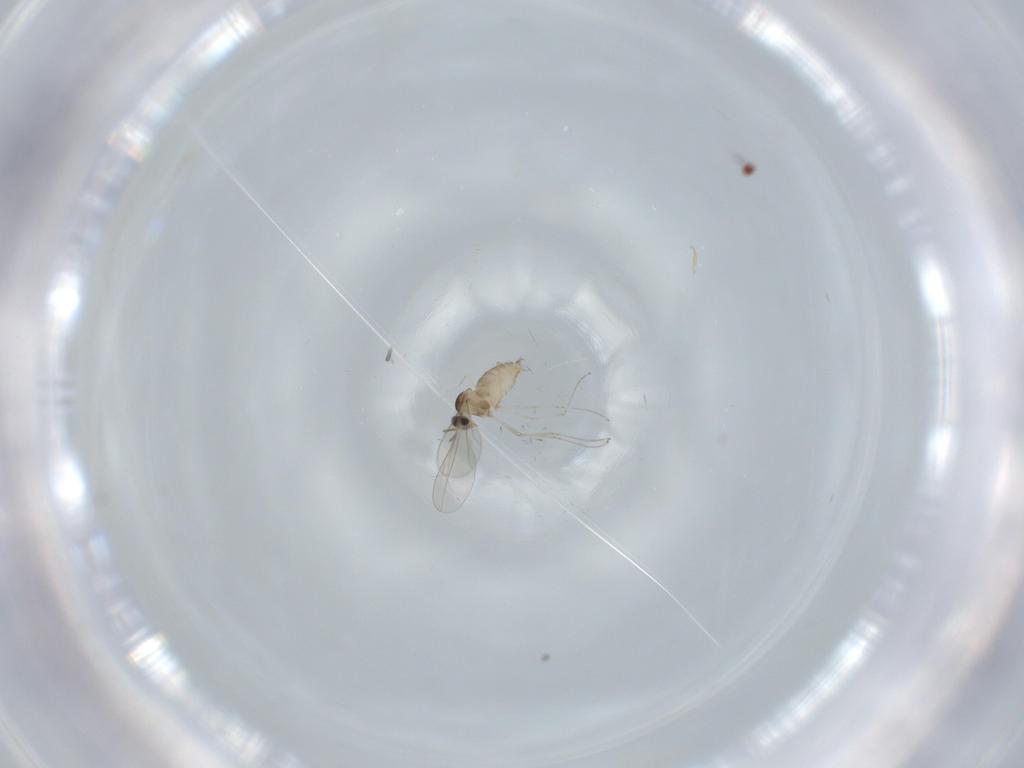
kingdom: Animalia
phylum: Arthropoda
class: Insecta
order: Diptera
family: Cecidomyiidae
